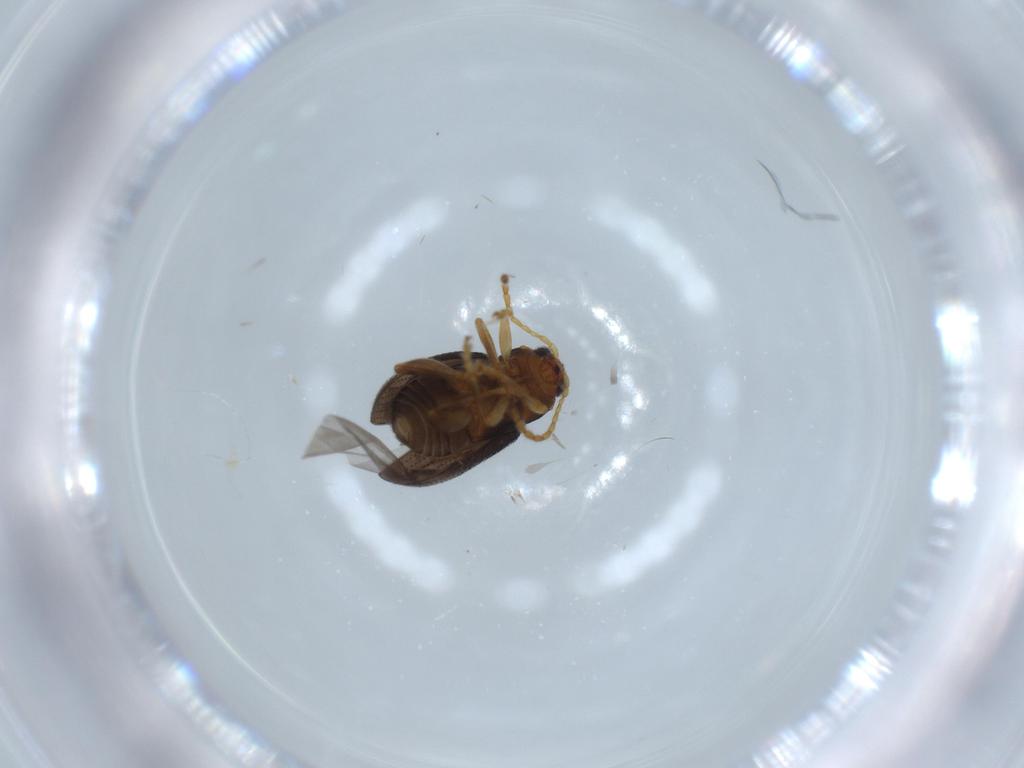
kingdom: Animalia
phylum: Arthropoda
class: Insecta
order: Coleoptera
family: Chrysomelidae
